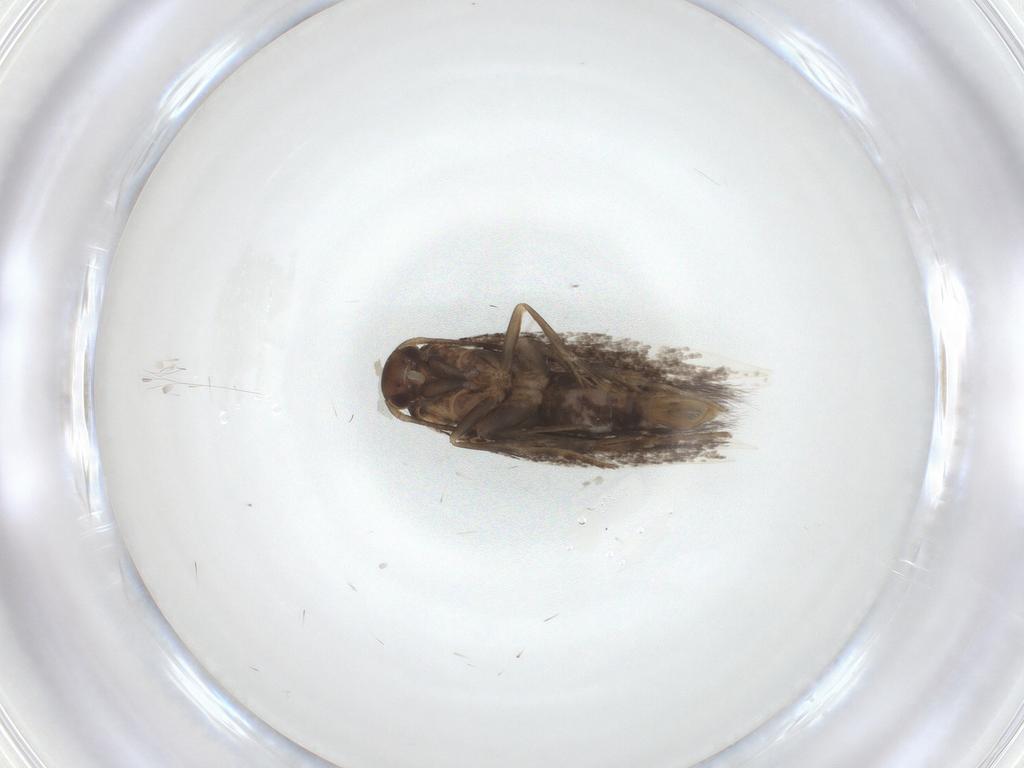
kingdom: Animalia
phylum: Arthropoda
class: Insecta
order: Lepidoptera
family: Elachistidae
